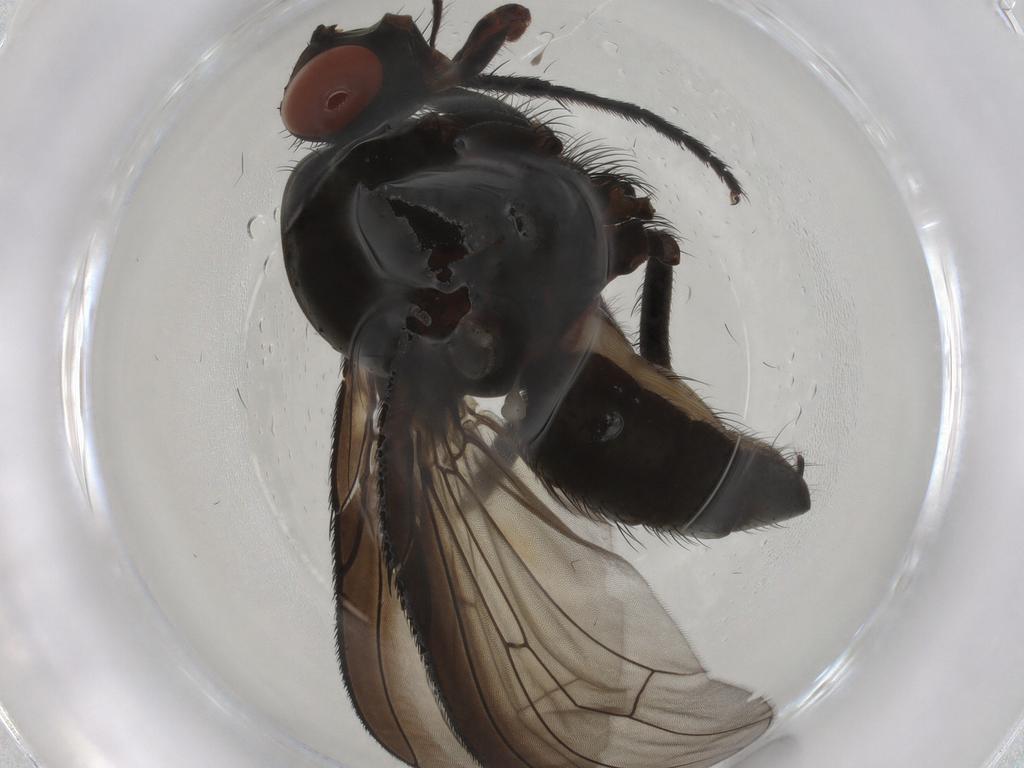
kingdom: Animalia
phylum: Arthropoda
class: Insecta
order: Diptera
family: Anthomyiidae
